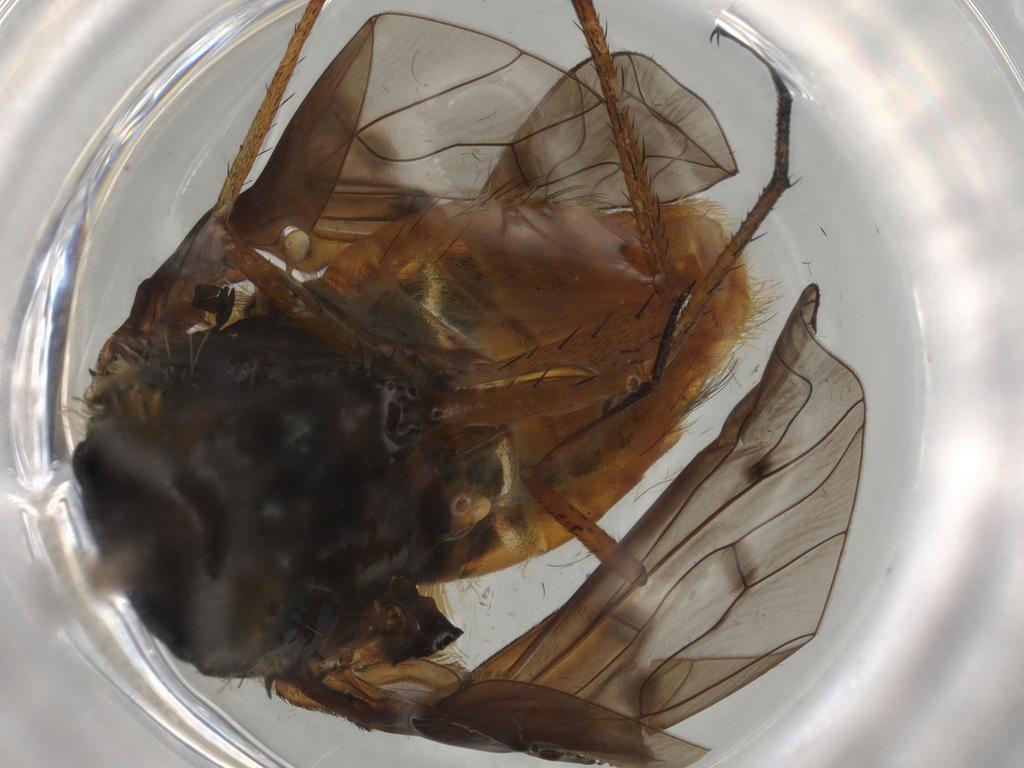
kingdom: Animalia
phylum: Arthropoda
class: Insecta
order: Diptera
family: Bombyliidae
